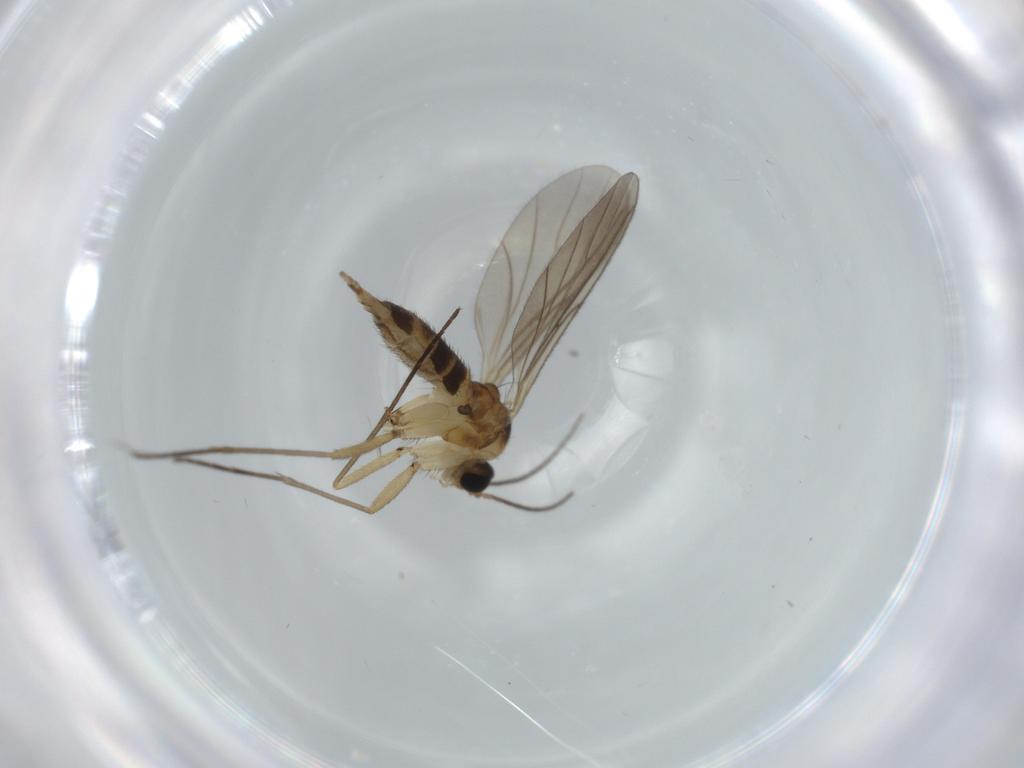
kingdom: Animalia
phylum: Arthropoda
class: Insecta
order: Diptera
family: Sciaridae
